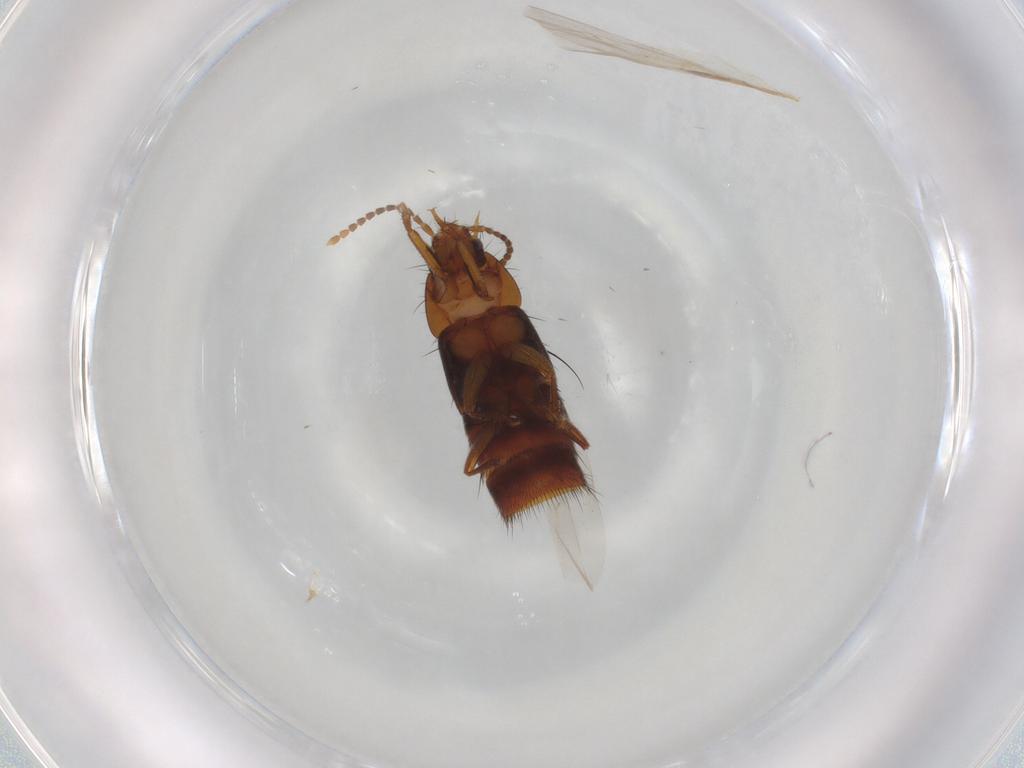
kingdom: Animalia
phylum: Arthropoda
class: Insecta
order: Coleoptera
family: Staphylinidae
